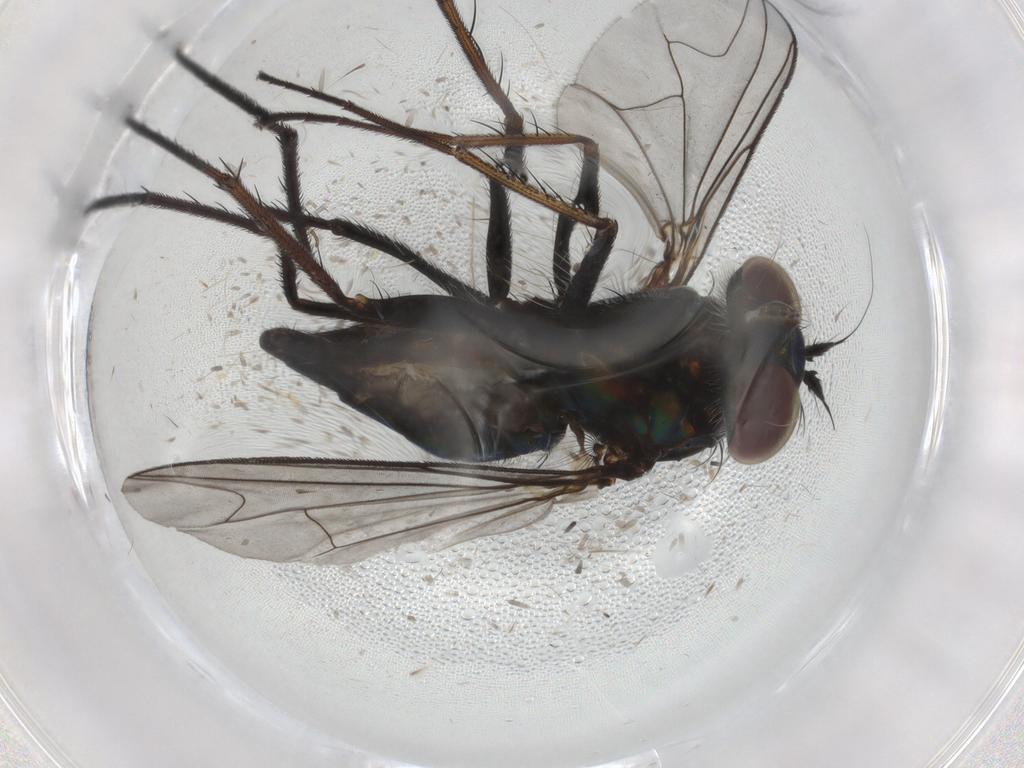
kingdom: Animalia
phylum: Arthropoda
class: Insecta
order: Diptera
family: Dolichopodidae
